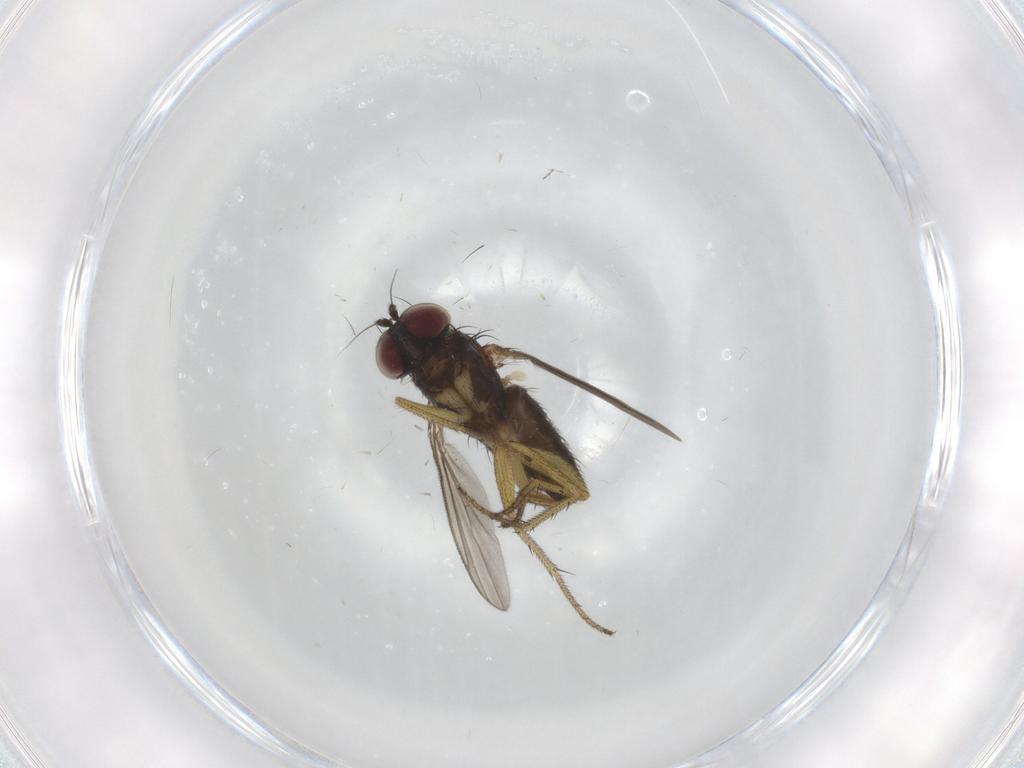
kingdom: Animalia
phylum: Arthropoda
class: Insecta
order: Diptera
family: Dolichopodidae
